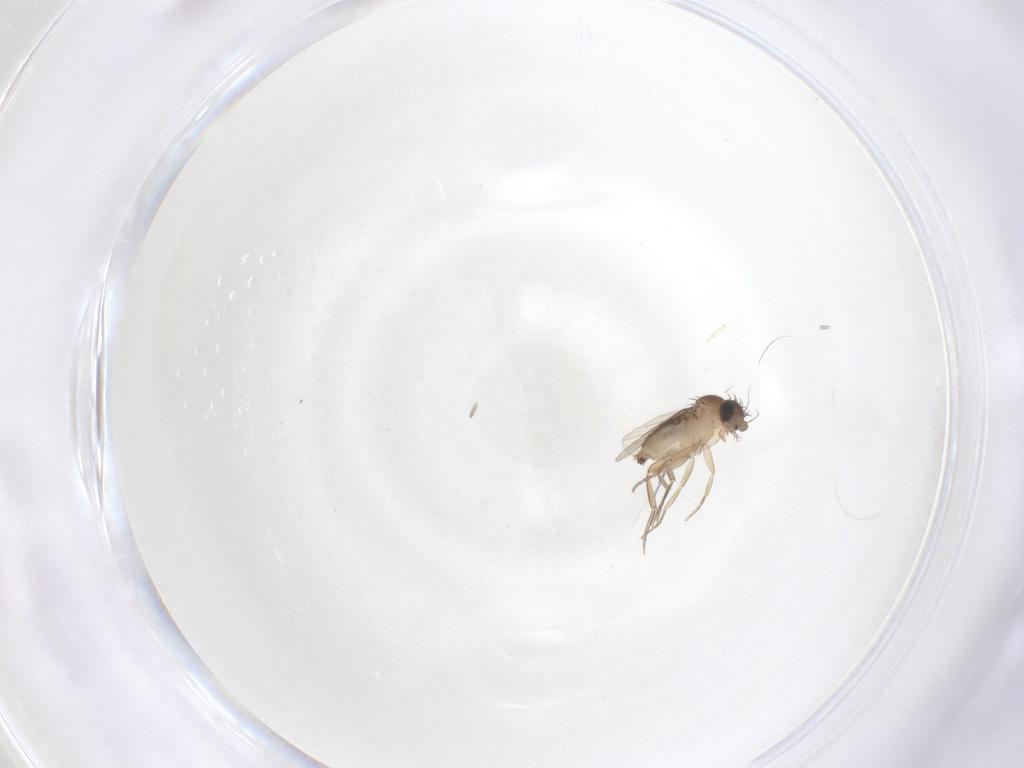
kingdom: Animalia
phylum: Arthropoda
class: Insecta
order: Diptera
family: Phoridae
